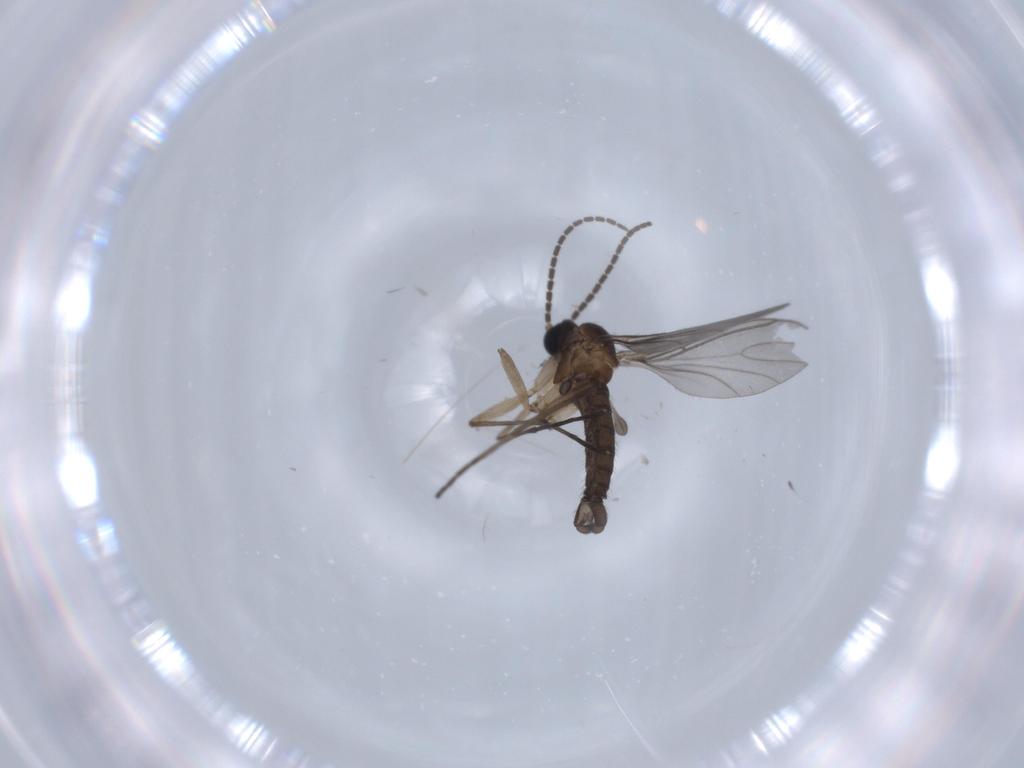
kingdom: Animalia
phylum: Arthropoda
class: Insecta
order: Diptera
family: Sciaridae
